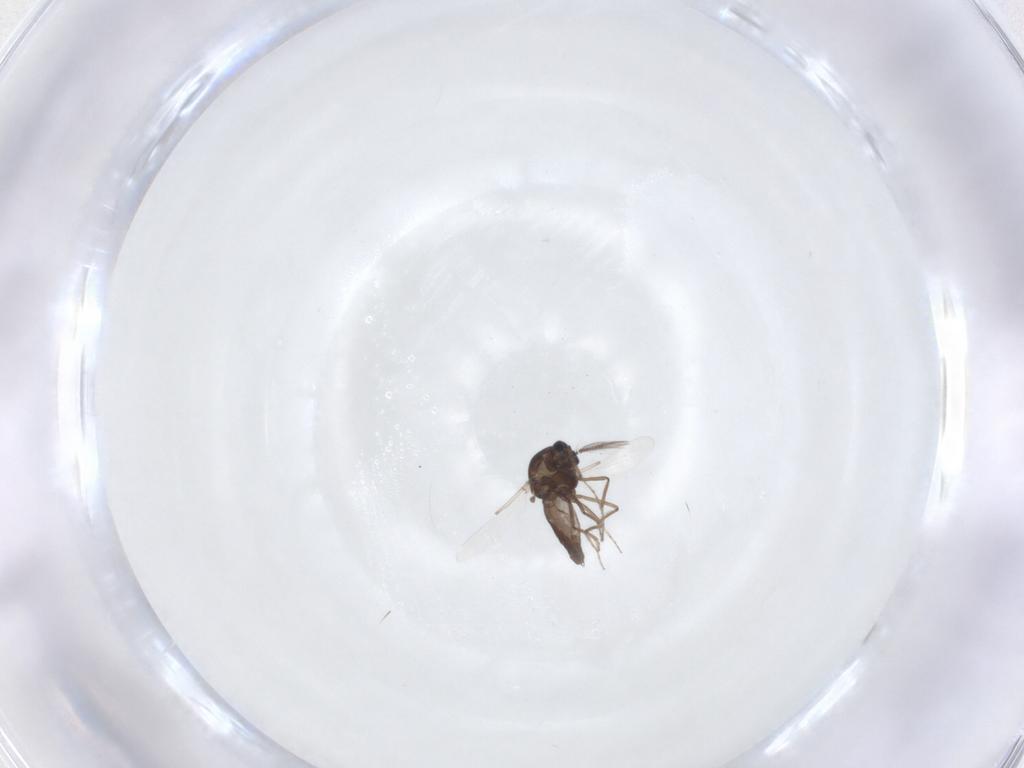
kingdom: Animalia
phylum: Arthropoda
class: Insecta
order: Diptera
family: Ceratopogonidae
